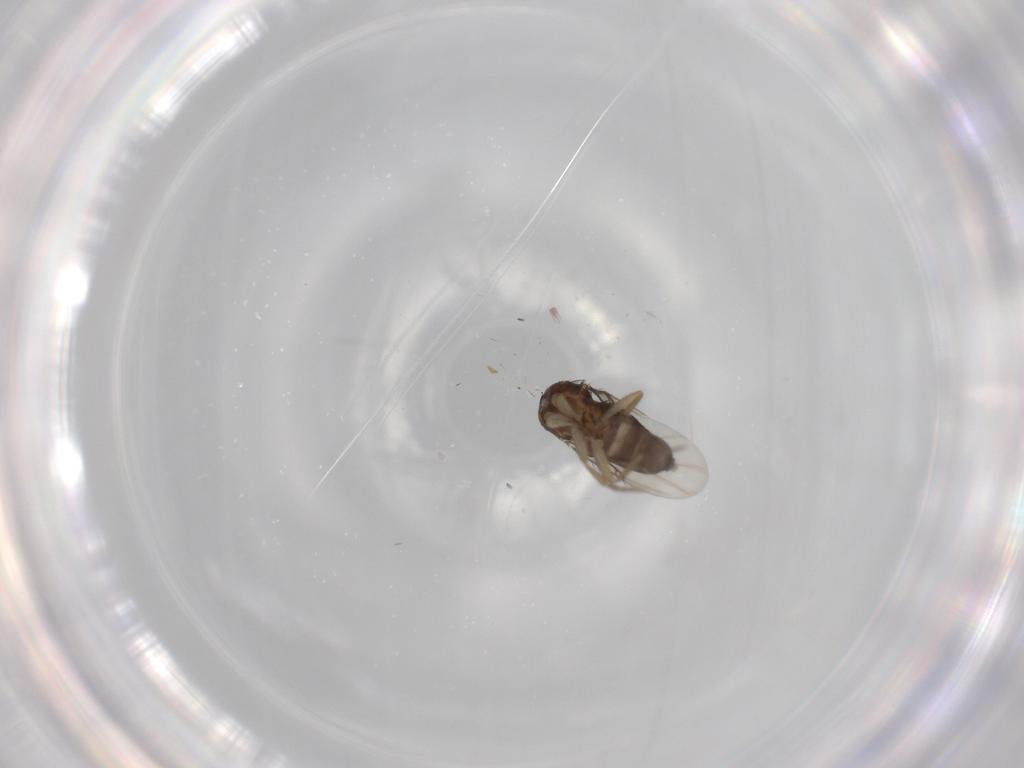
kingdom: Animalia
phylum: Arthropoda
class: Insecta
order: Diptera
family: Phoridae
